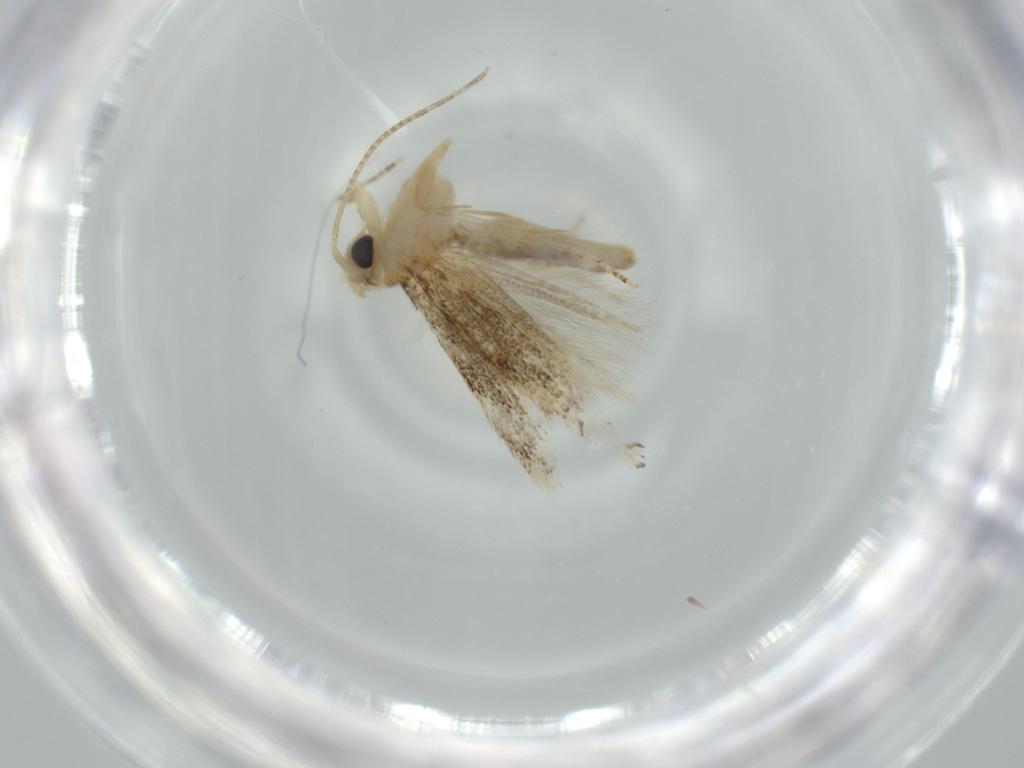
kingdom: Animalia
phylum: Arthropoda
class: Insecta
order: Lepidoptera
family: Bucculatricidae
